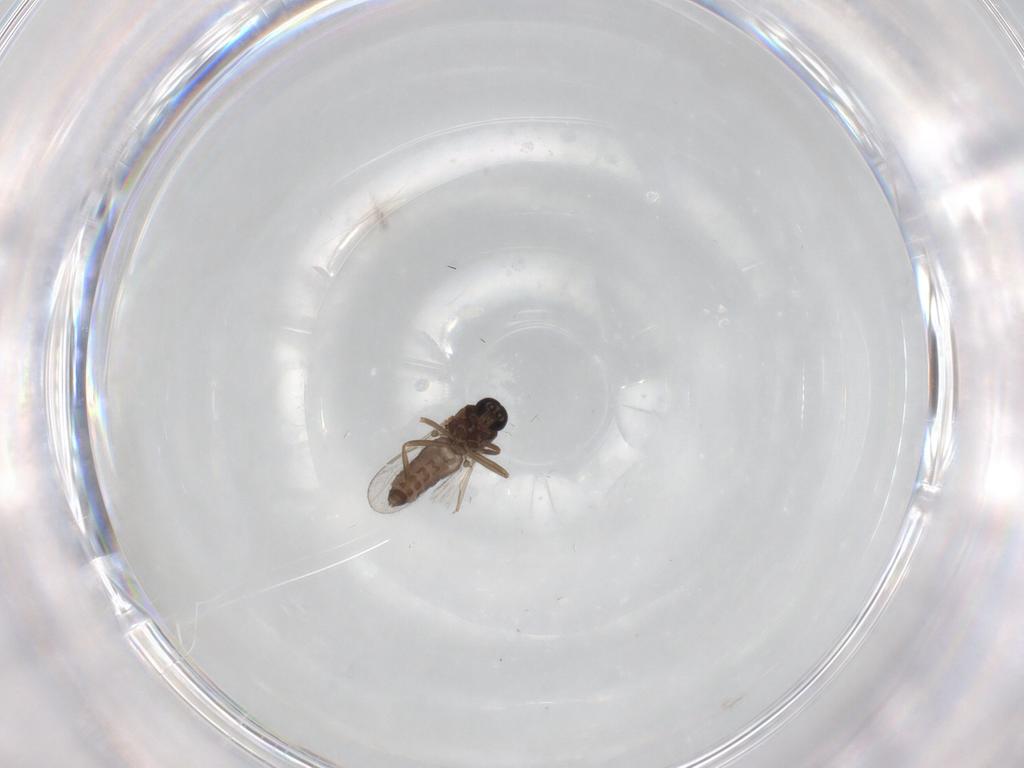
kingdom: Animalia
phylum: Arthropoda
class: Insecta
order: Diptera
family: Ceratopogonidae
